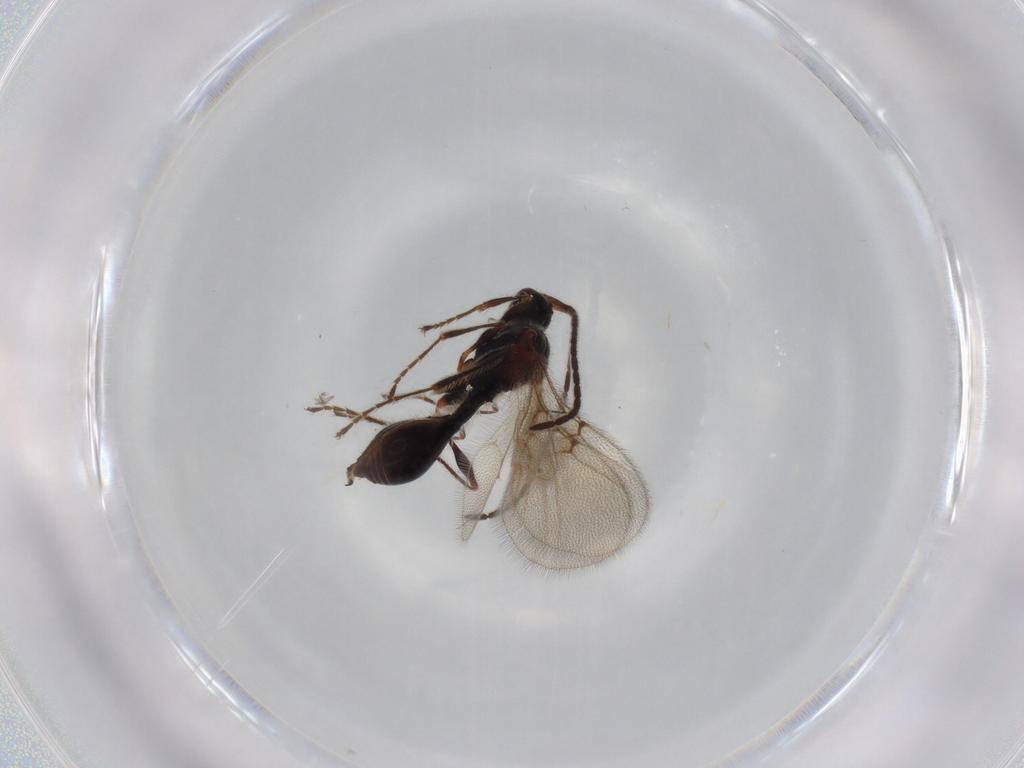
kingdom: Animalia
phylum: Arthropoda
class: Insecta
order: Hymenoptera
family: Diapriidae
